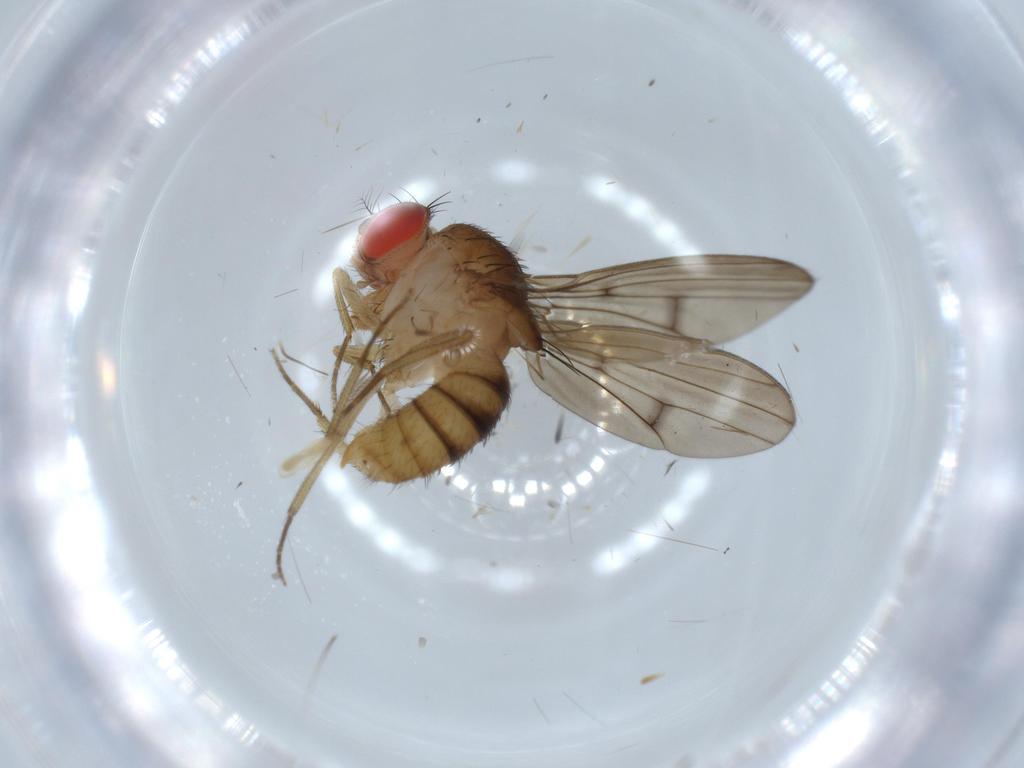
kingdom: Animalia
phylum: Arthropoda
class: Insecta
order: Diptera
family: Drosophilidae
